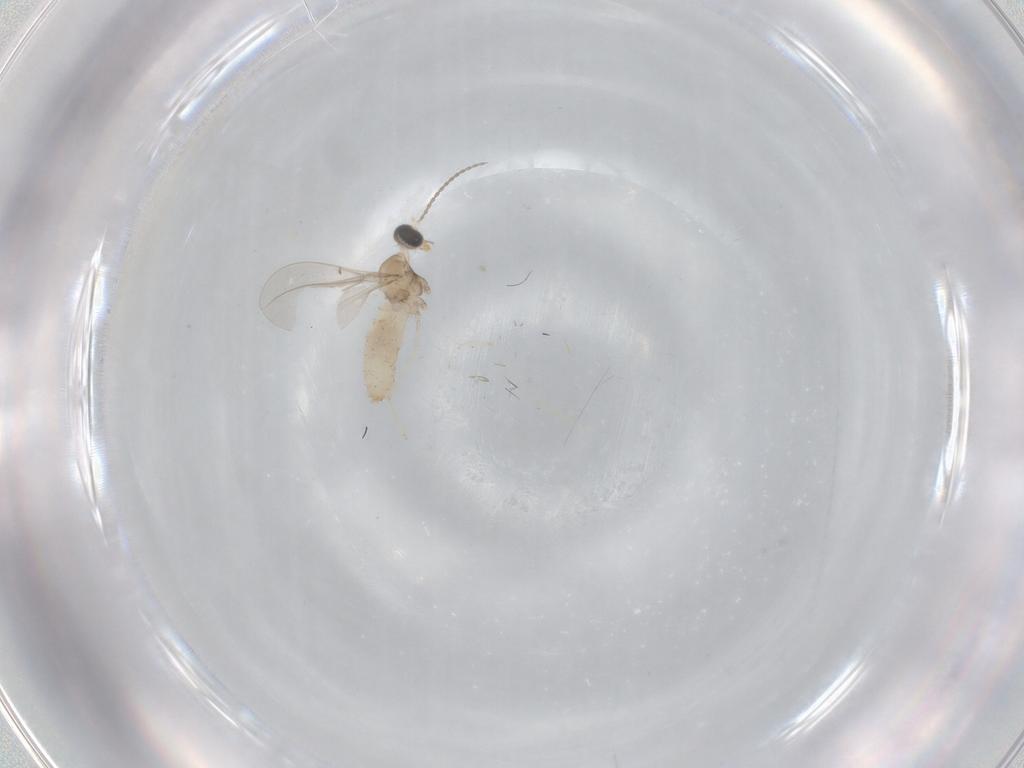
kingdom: Animalia
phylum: Arthropoda
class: Insecta
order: Diptera
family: Cecidomyiidae
